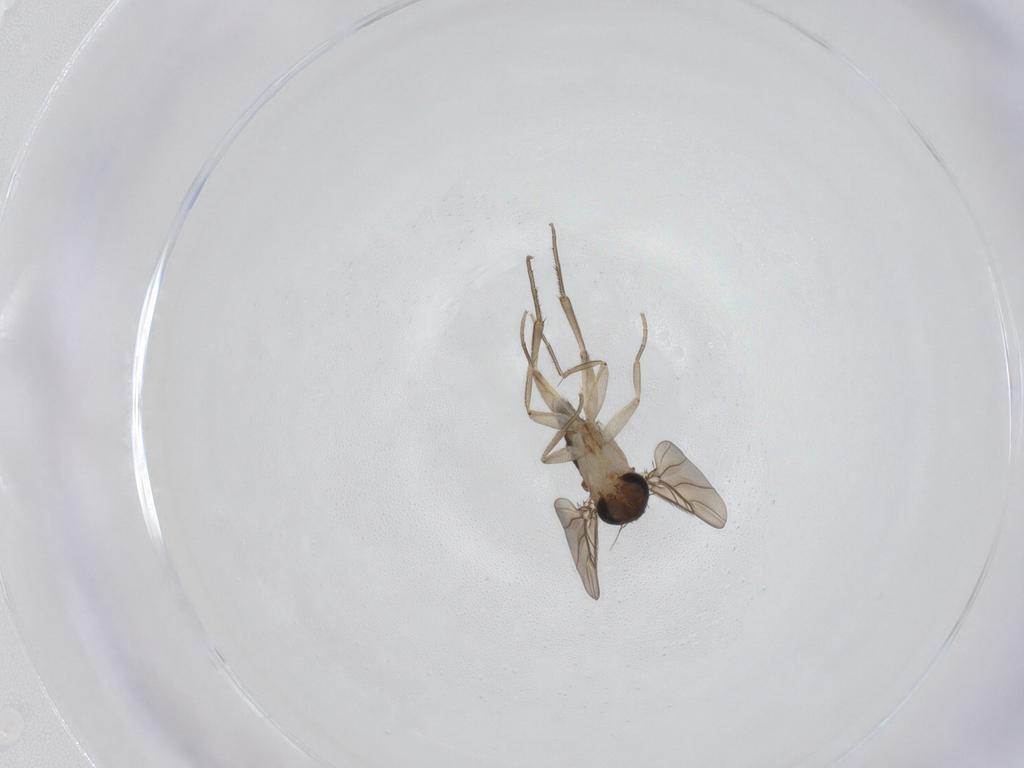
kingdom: Animalia
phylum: Arthropoda
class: Insecta
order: Diptera
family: Phoridae
